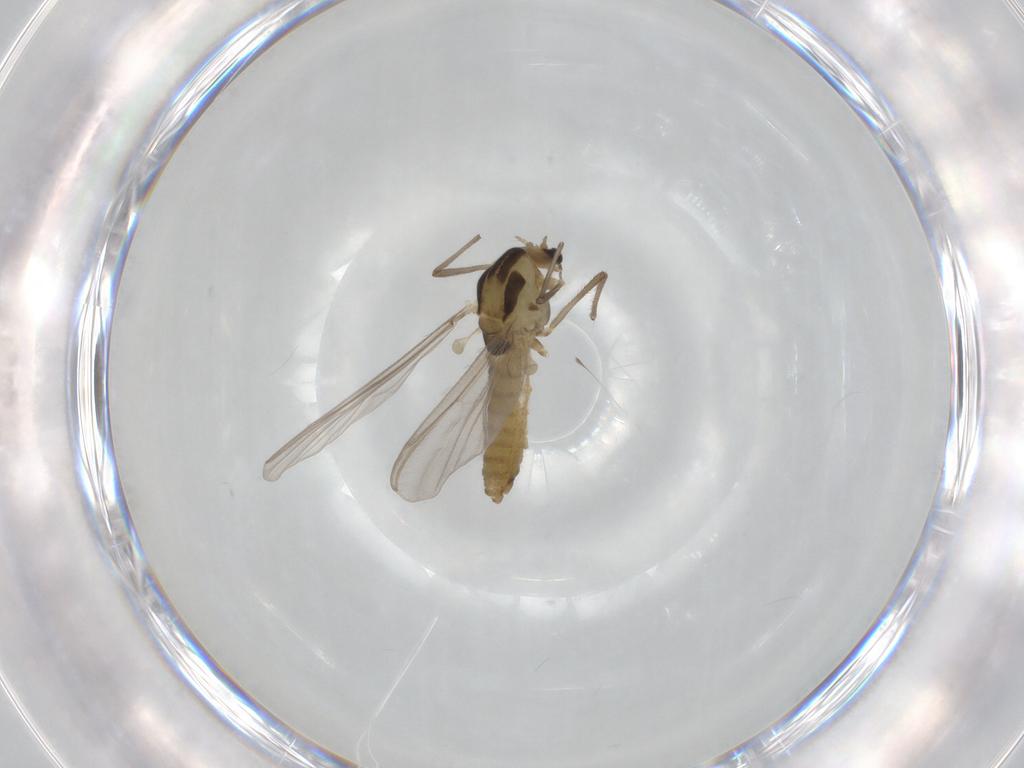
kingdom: Animalia
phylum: Arthropoda
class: Insecta
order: Diptera
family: Chironomidae
